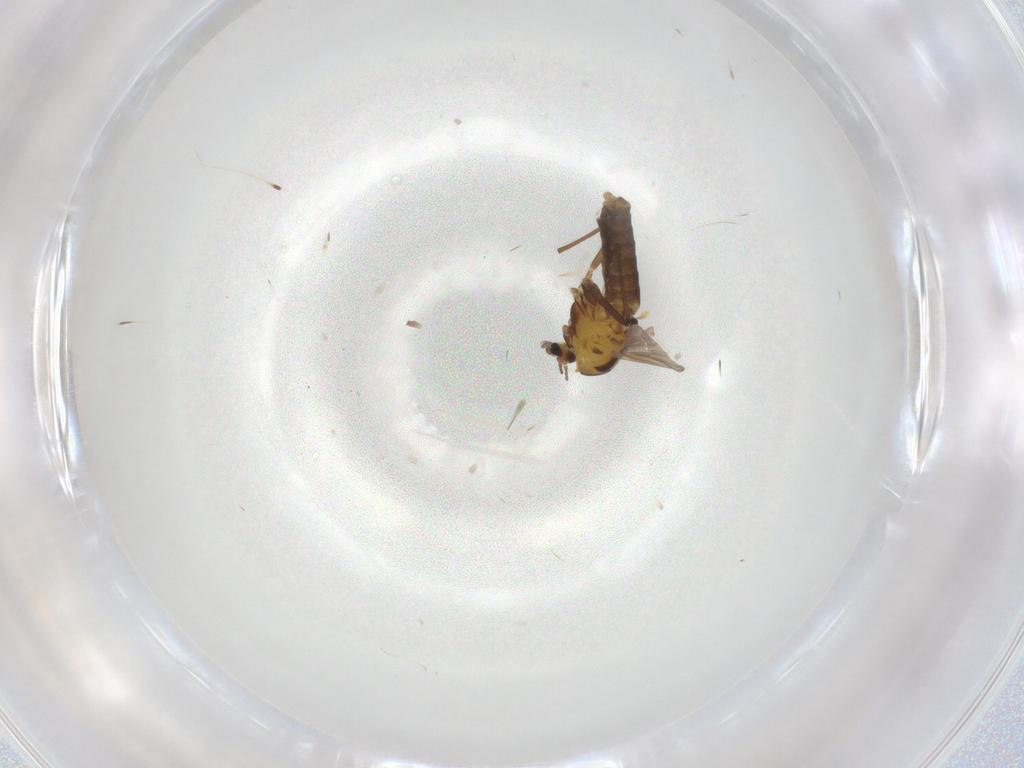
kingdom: Animalia
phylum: Arthropoda
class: Insecta
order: Diptera
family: Chironomidae
